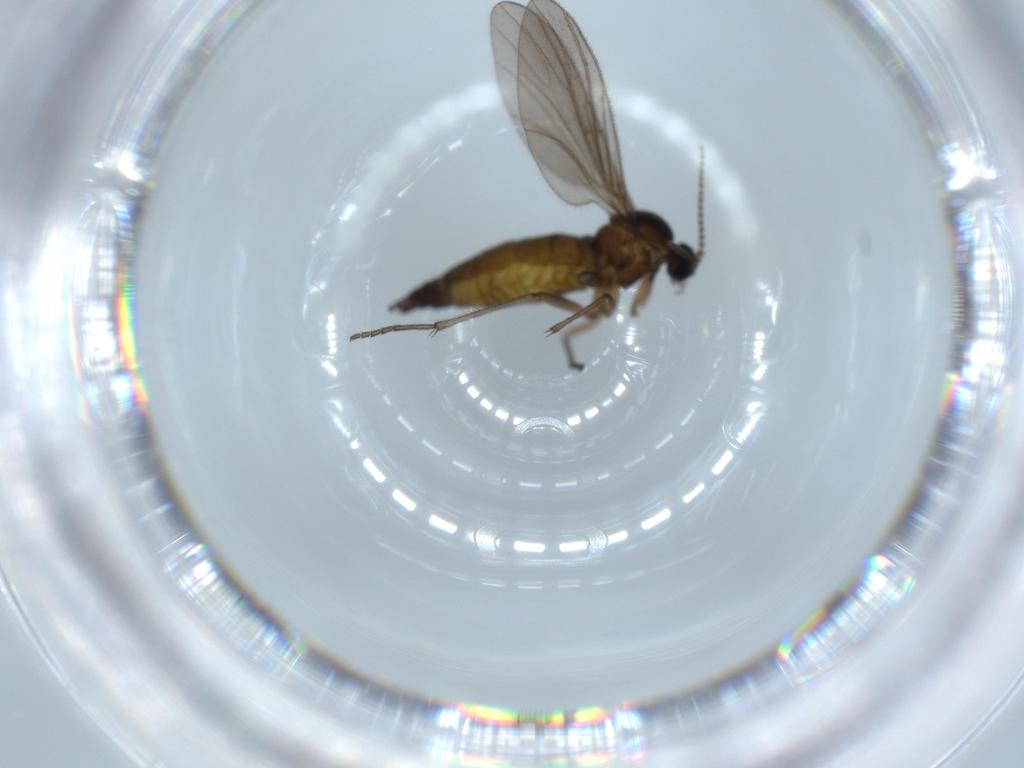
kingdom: Animalia
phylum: Arthropoda
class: Insecta
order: Diptera
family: Sciaridae
